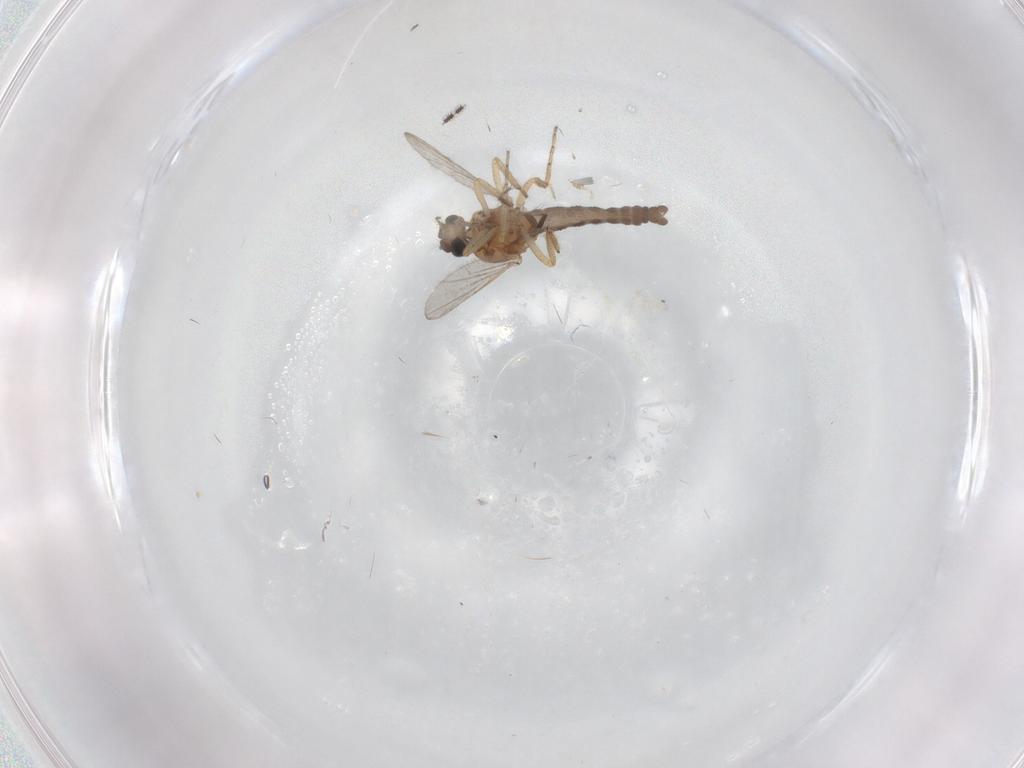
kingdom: Animalia
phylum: Arthropoda
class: Insecta
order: Diptera
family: Ceratopogonidae
